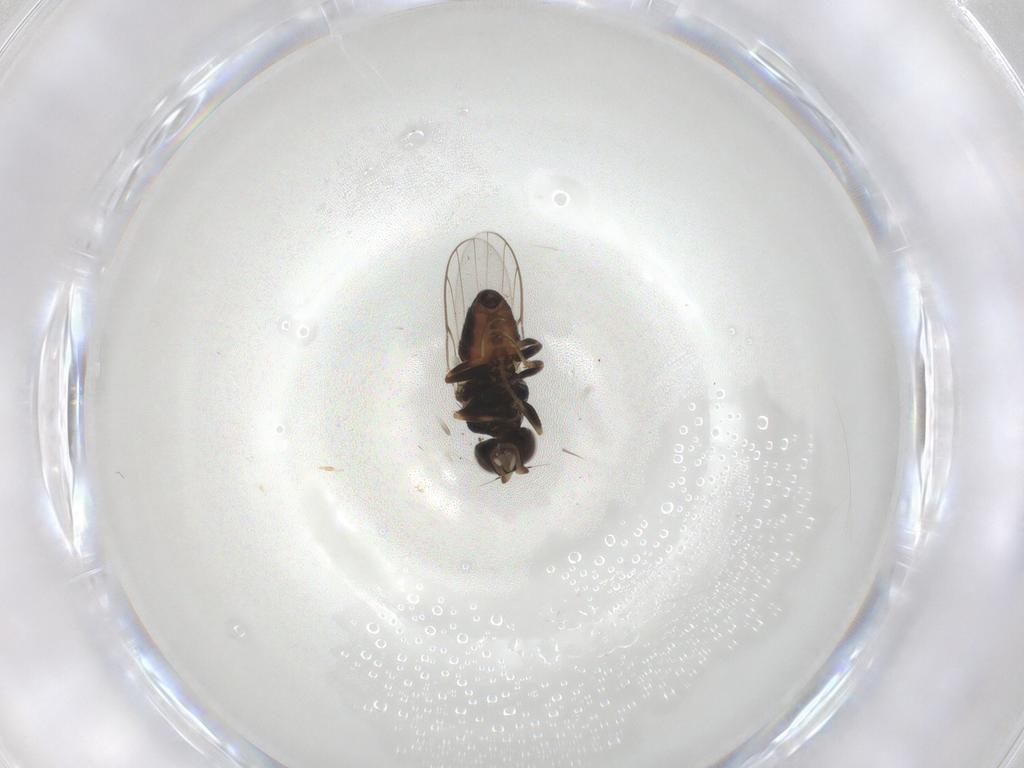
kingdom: Animalia
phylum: Arthropoda
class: Insecta
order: Diptera
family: Chloropidae
